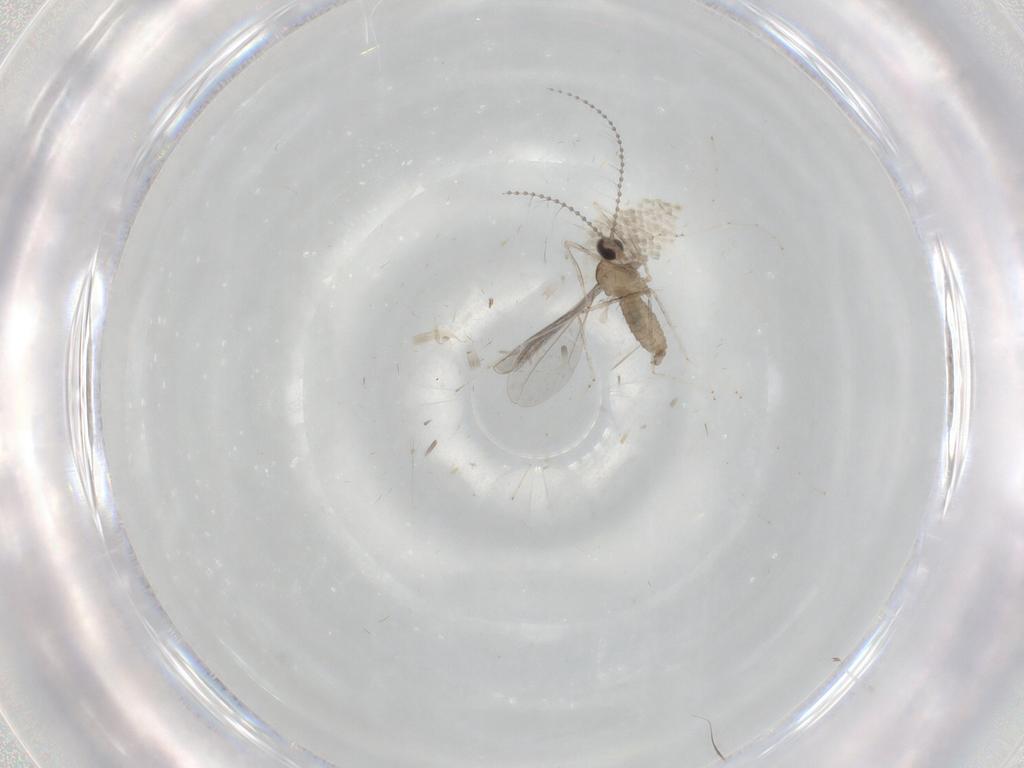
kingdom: Animalia
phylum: Arthropoda
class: Insecta
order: Diptera
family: Cecidomyiidae
